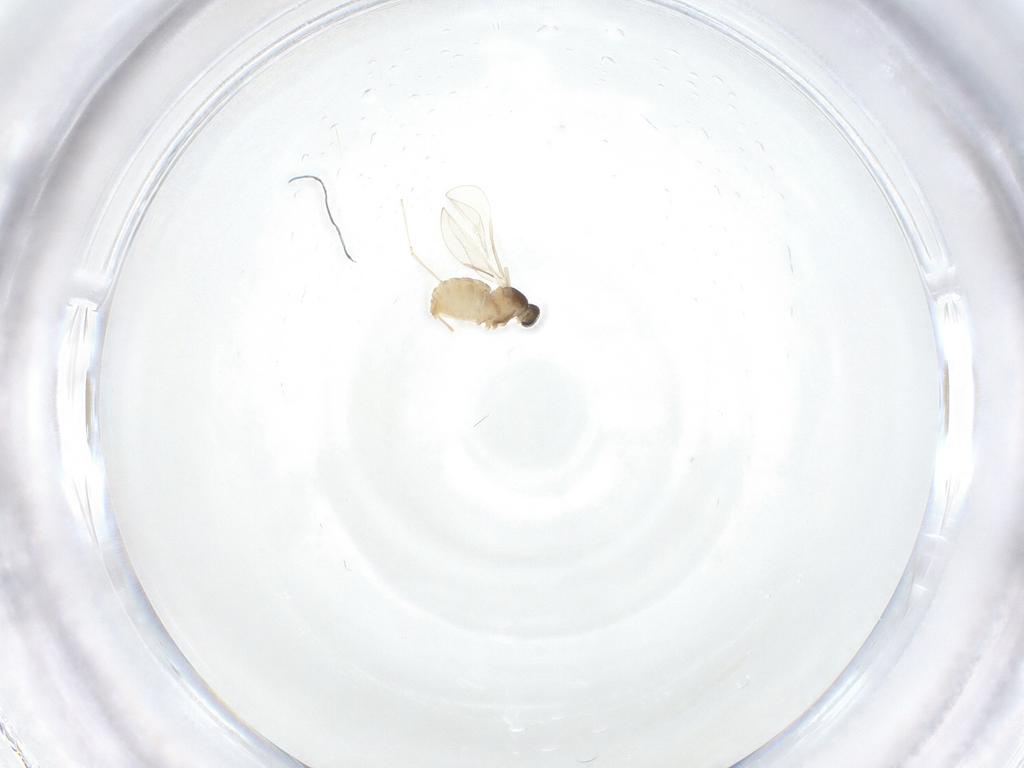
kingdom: Animalia
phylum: Arthropoda
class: Insecta
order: Diptera
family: Cecidomyiidae
